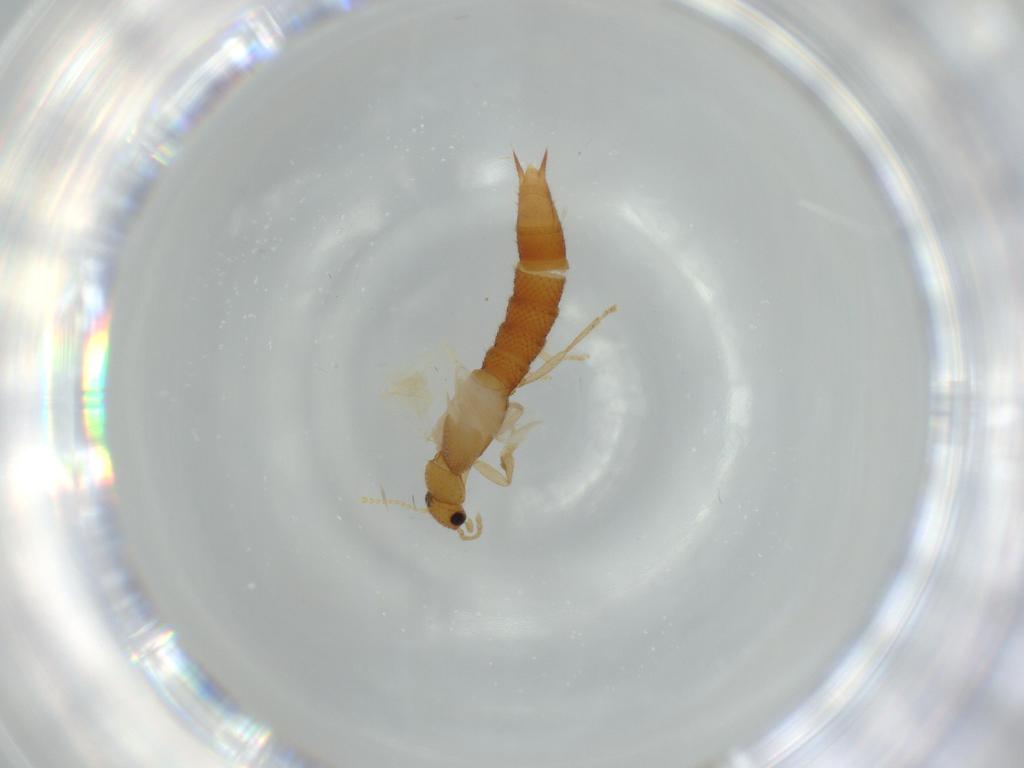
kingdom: Animalia
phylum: Arthropoda
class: Insecta
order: Coleoptera
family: Staphylinidae
